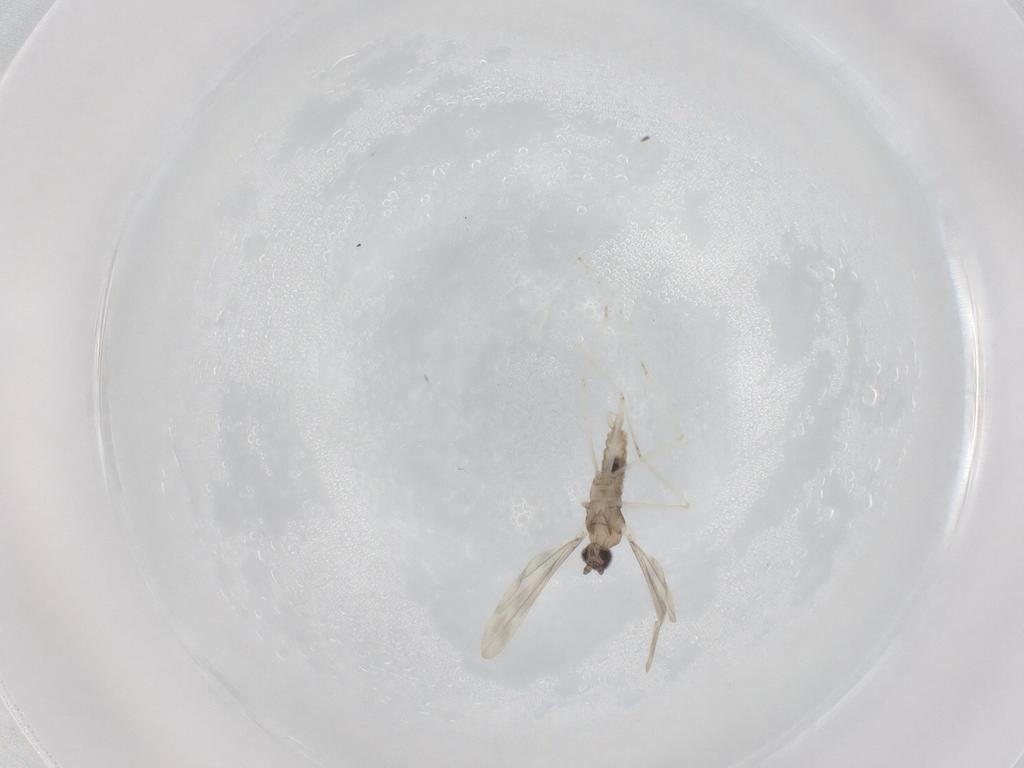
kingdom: Animalia
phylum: Arthropoda
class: Insecta
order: Diptera
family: Cecidomyiidae
